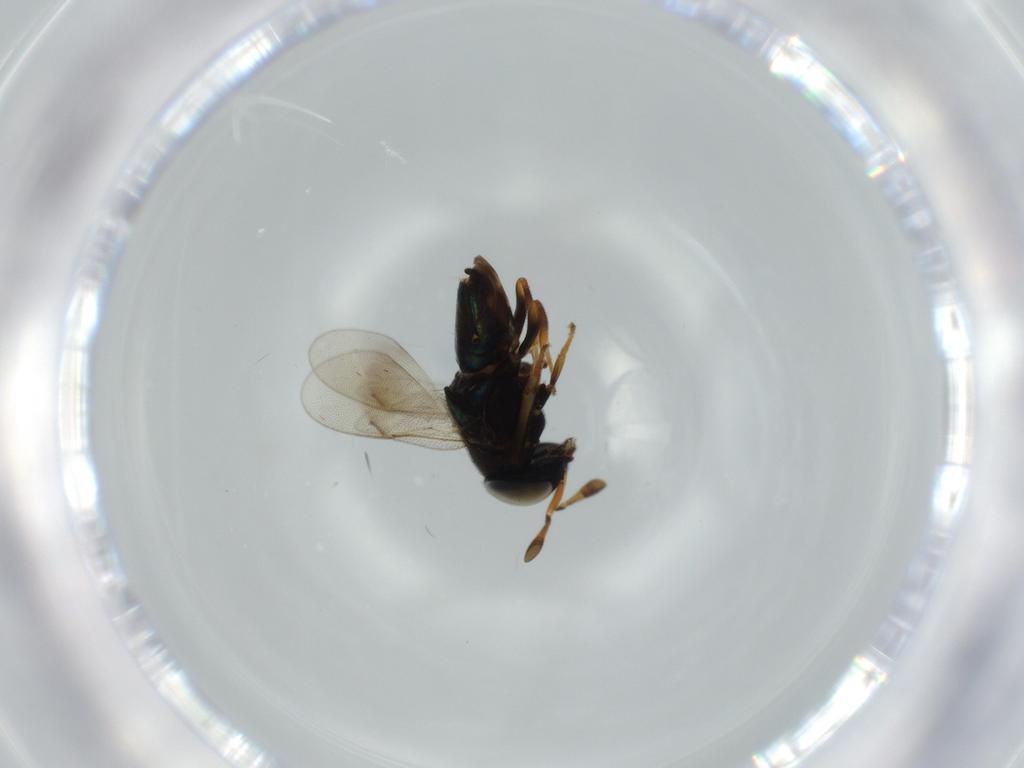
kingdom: Animalia
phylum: Arthropoda
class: Insecta
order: Hymenoptera
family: Encyrtidae
